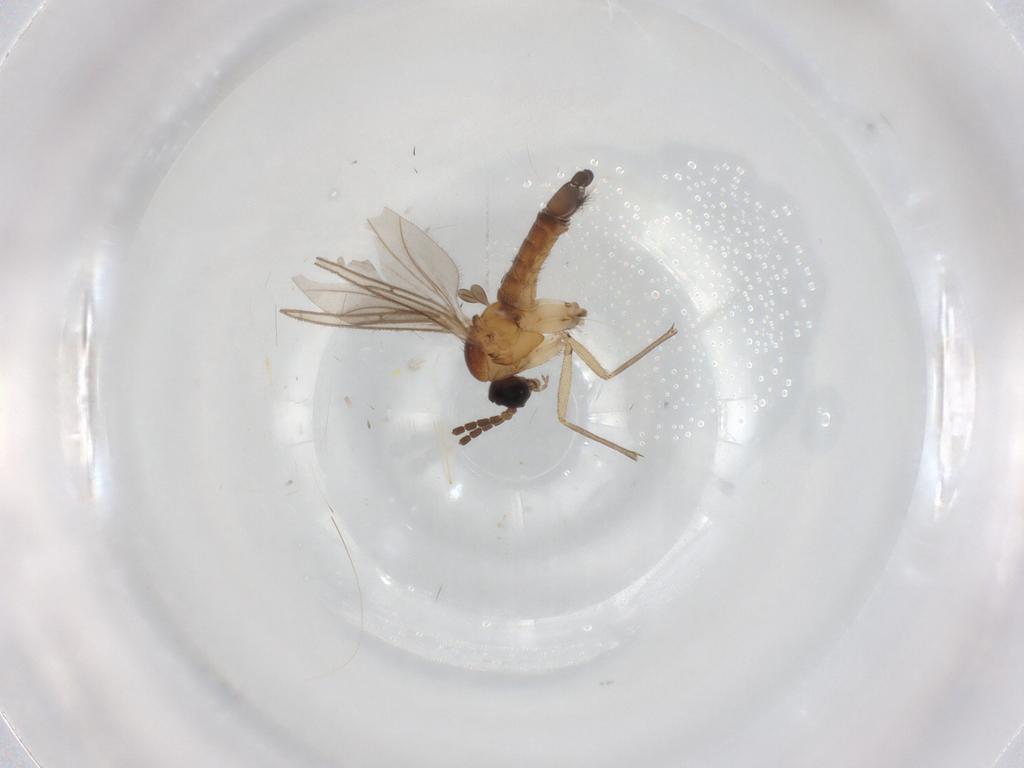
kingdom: Animalia
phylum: Arthropoda
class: Insecta
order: Diptera
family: Sciaridae
